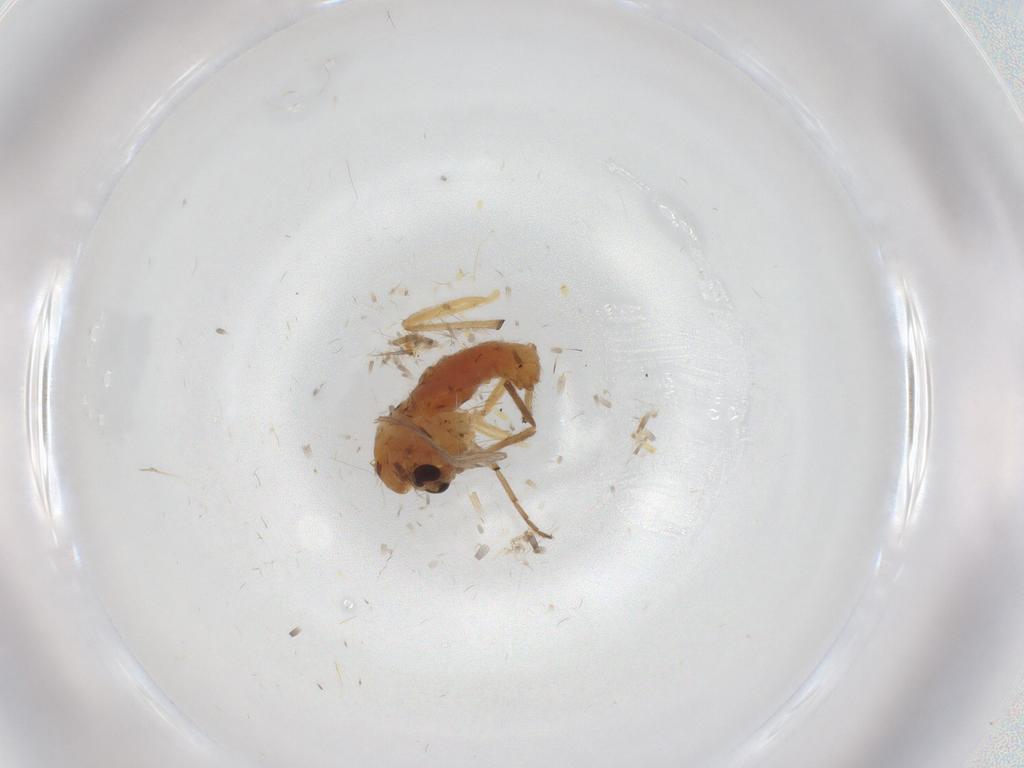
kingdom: Animalia
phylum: Arthropoda
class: Insecta
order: Diptera
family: Chironomidae
